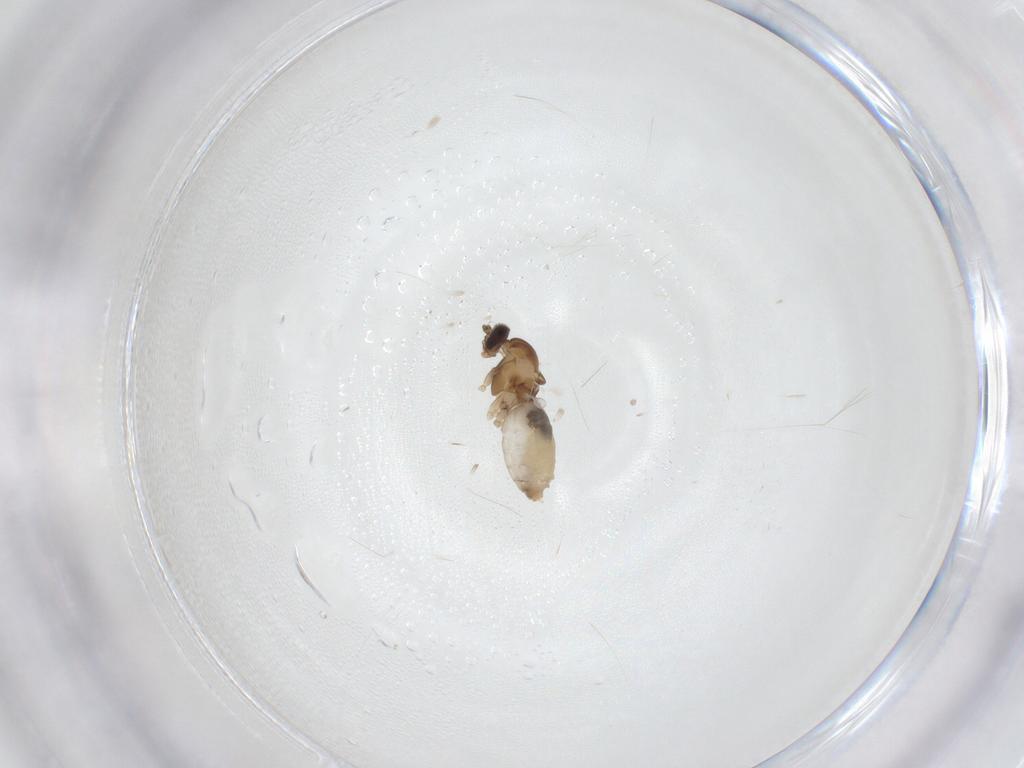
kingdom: Animalia
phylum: Arthropoda
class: Insecta
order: Diptera
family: Cecidomyiidae
